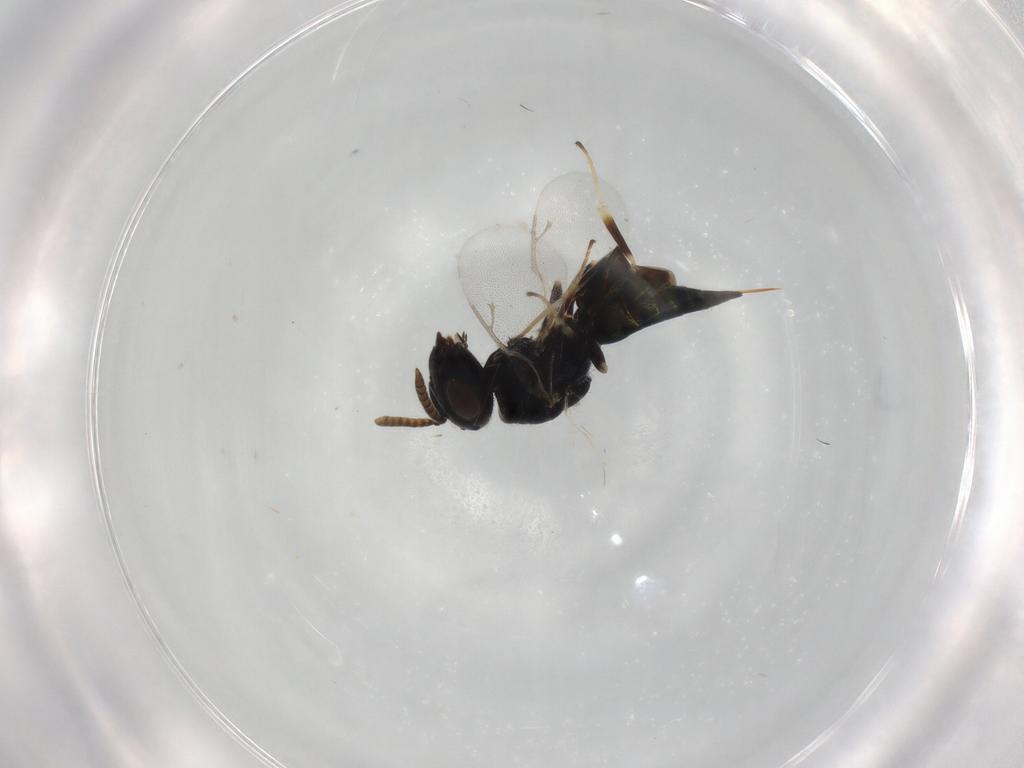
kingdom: Animalia
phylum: Arthropoda
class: Insecta
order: Hymenoptera
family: Pteromalidae
